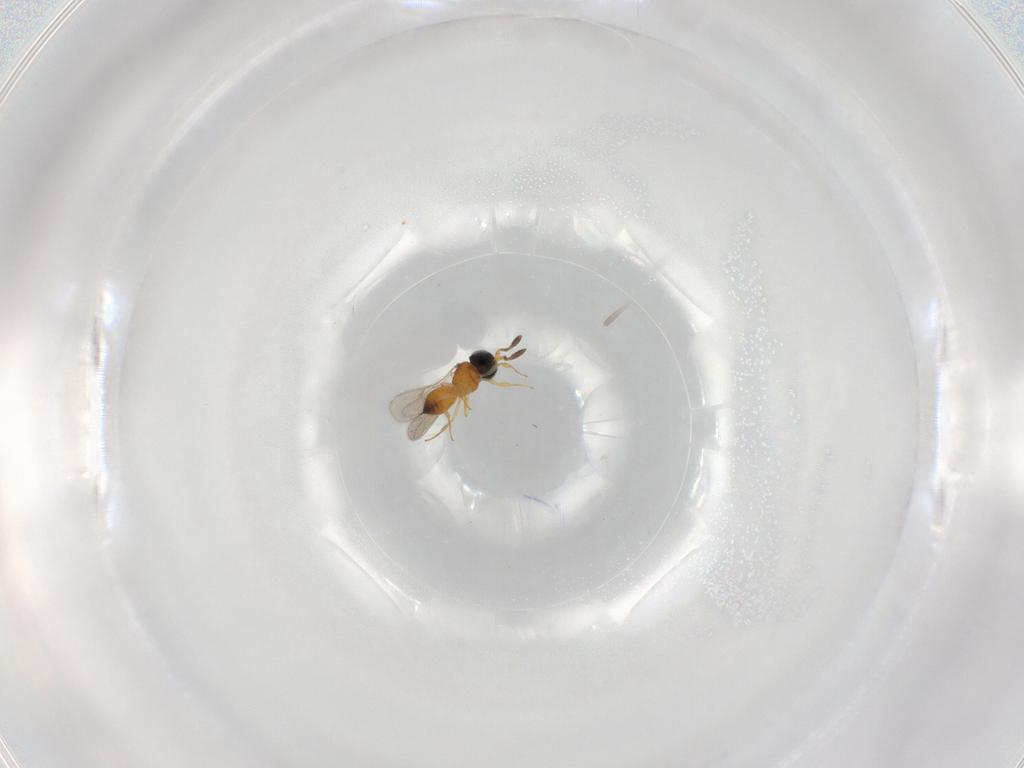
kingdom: Animalia
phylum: Arthropoda
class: Insecta
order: Hymenoptera
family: Scelionidae
